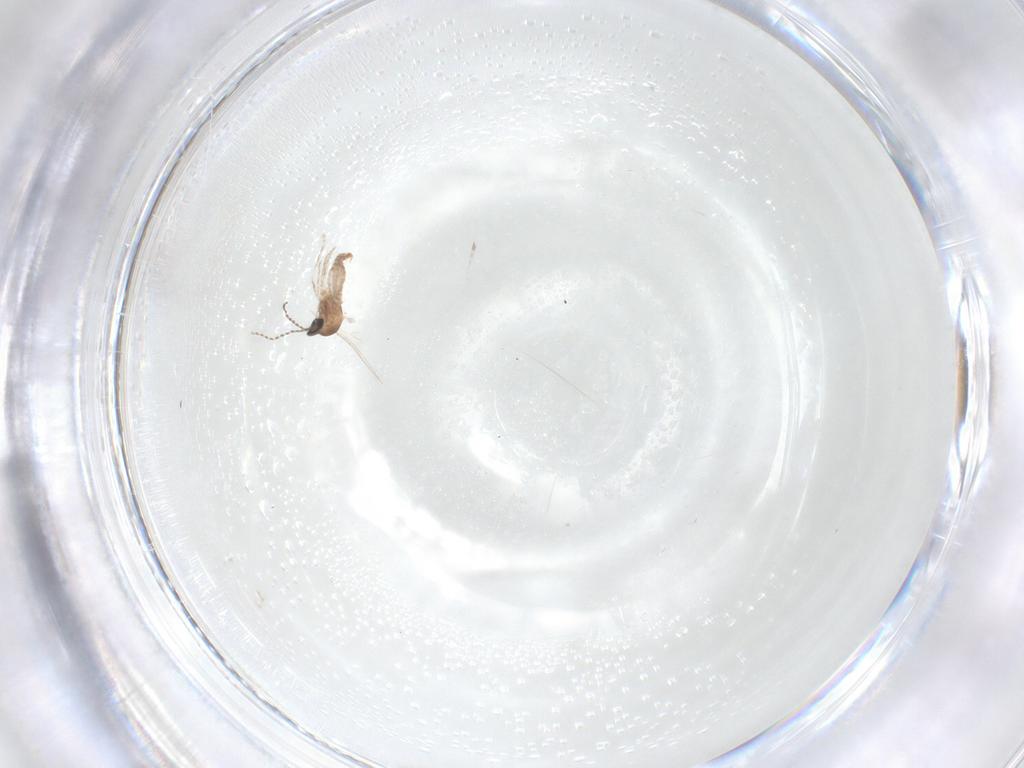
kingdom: Animalia
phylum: Arthropoda
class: Insecta
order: Diptera
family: Cecidomyiidae
